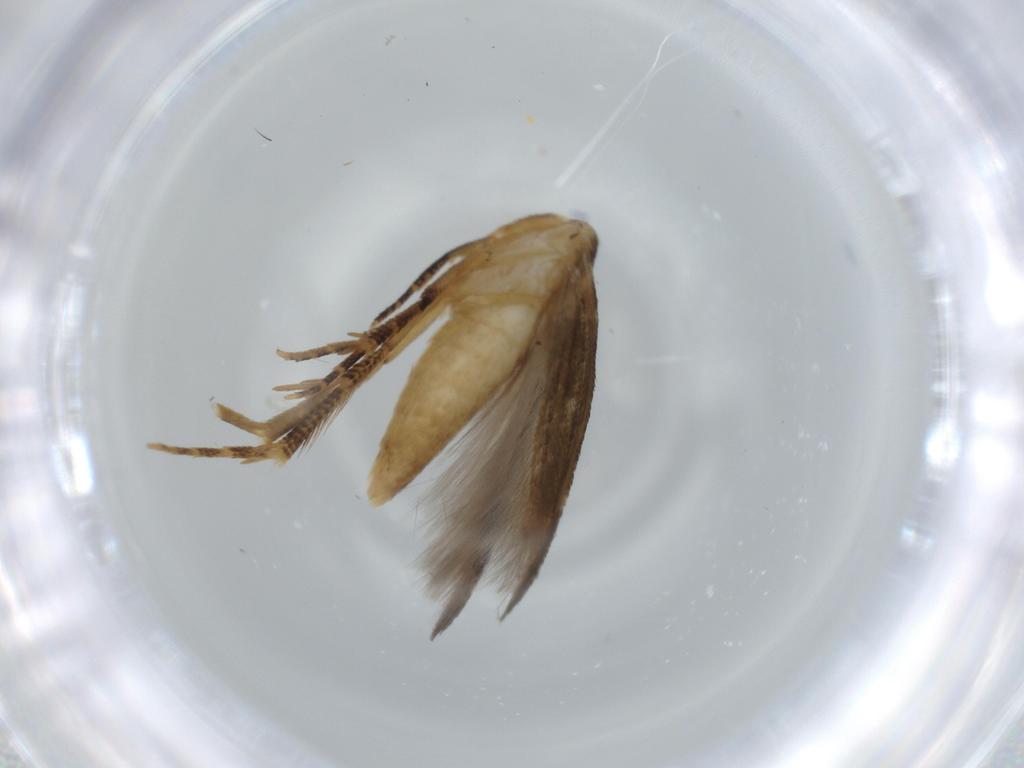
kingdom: Animalia
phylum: Arthropoda
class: Insecta
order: Lepidoptera
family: Cosmopterigidae
